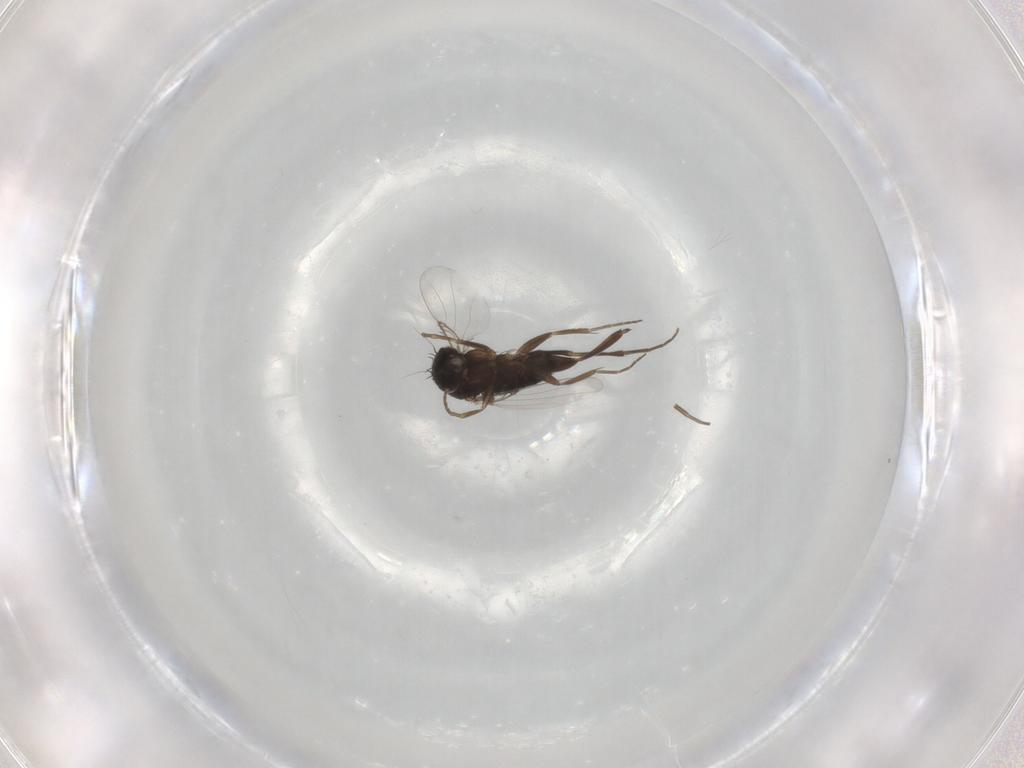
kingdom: Animalia
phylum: Arthropoda
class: Insecta
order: Diptera
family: Phoridae
